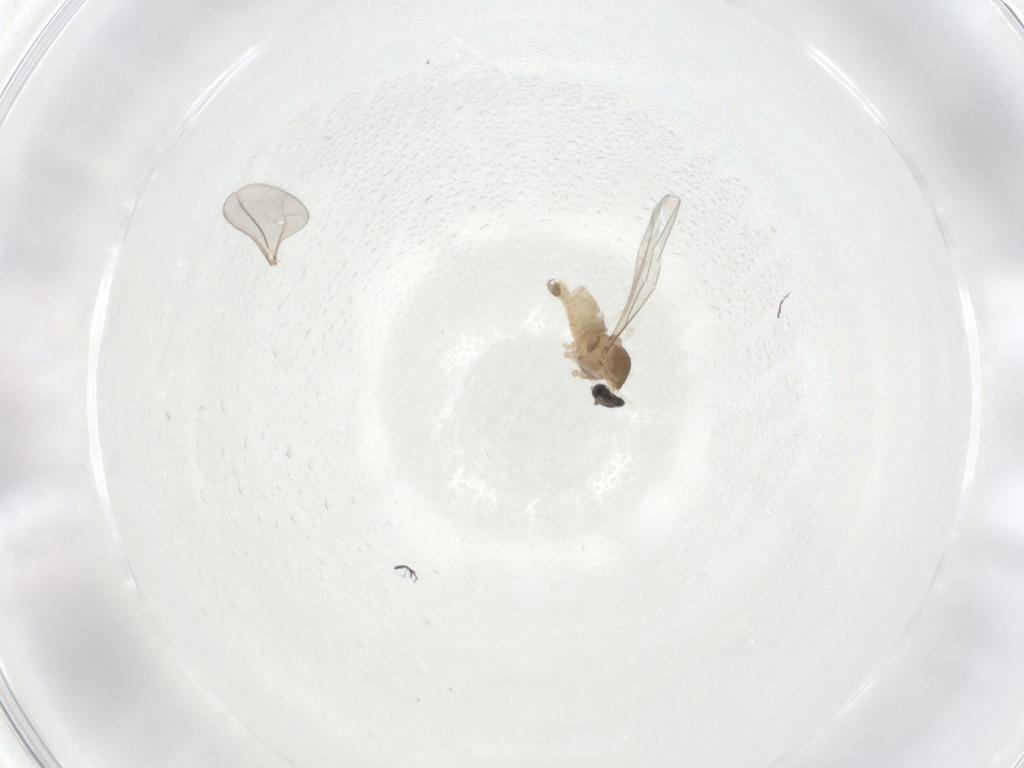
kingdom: Animalia
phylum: Arthropoda
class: Insecta
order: Diptera
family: Cecidomyiidae
